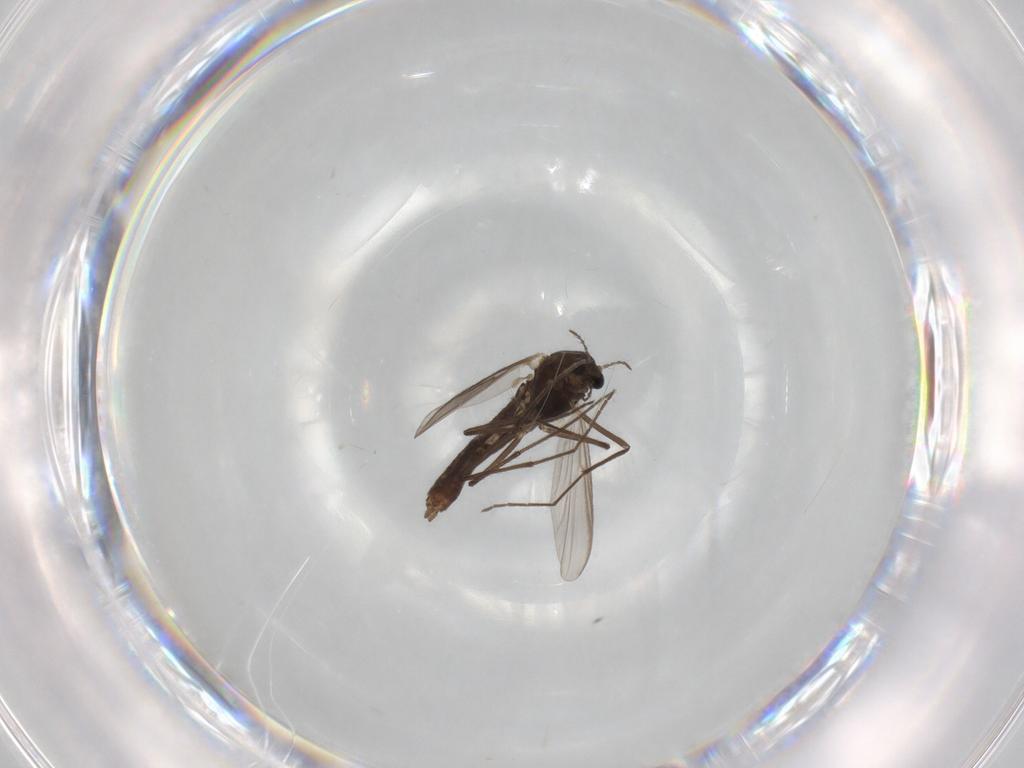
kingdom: Animalia
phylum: Arthropoda
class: Insecta
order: Diptera
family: Chironomidae
